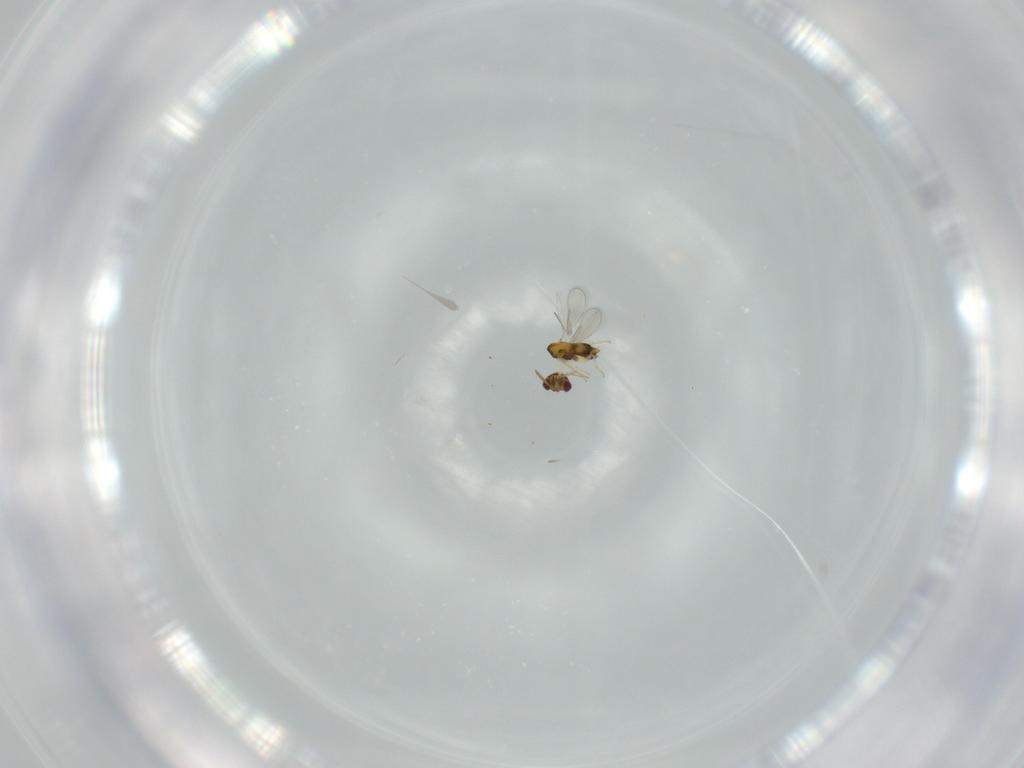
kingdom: Animalia
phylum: Arthropoda
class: Insecta
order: Hymenoptera
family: Aphelinidae
